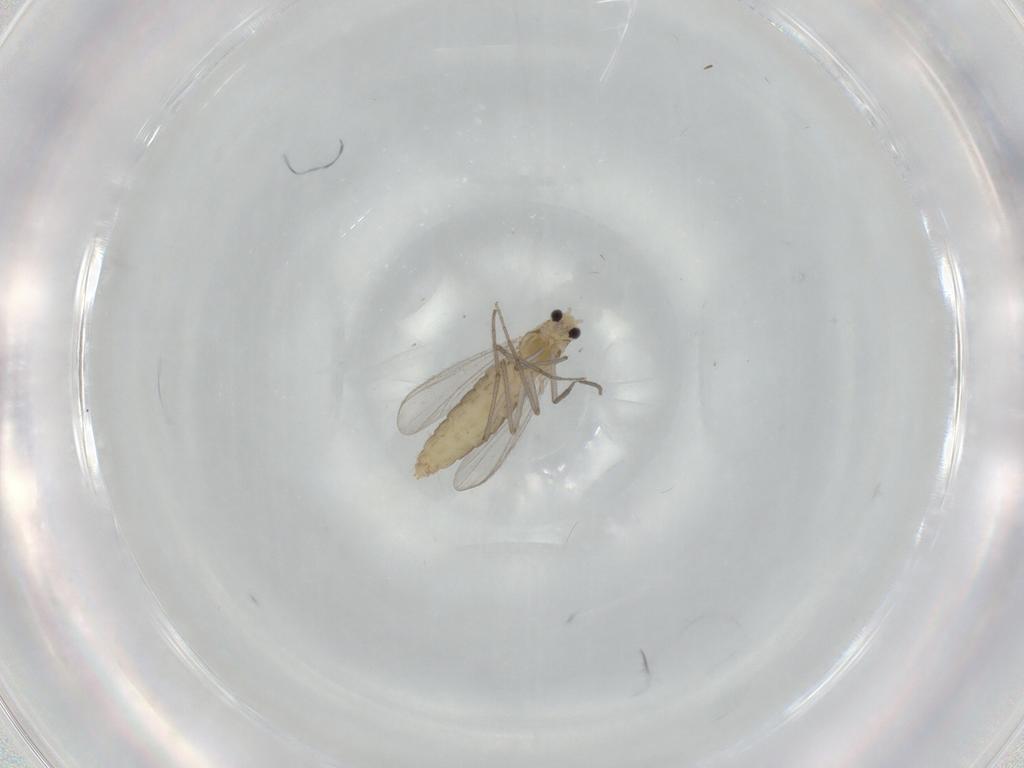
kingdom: Animalia
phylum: Arthropoda
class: Insecta
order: Diptera
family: Chironomidae
